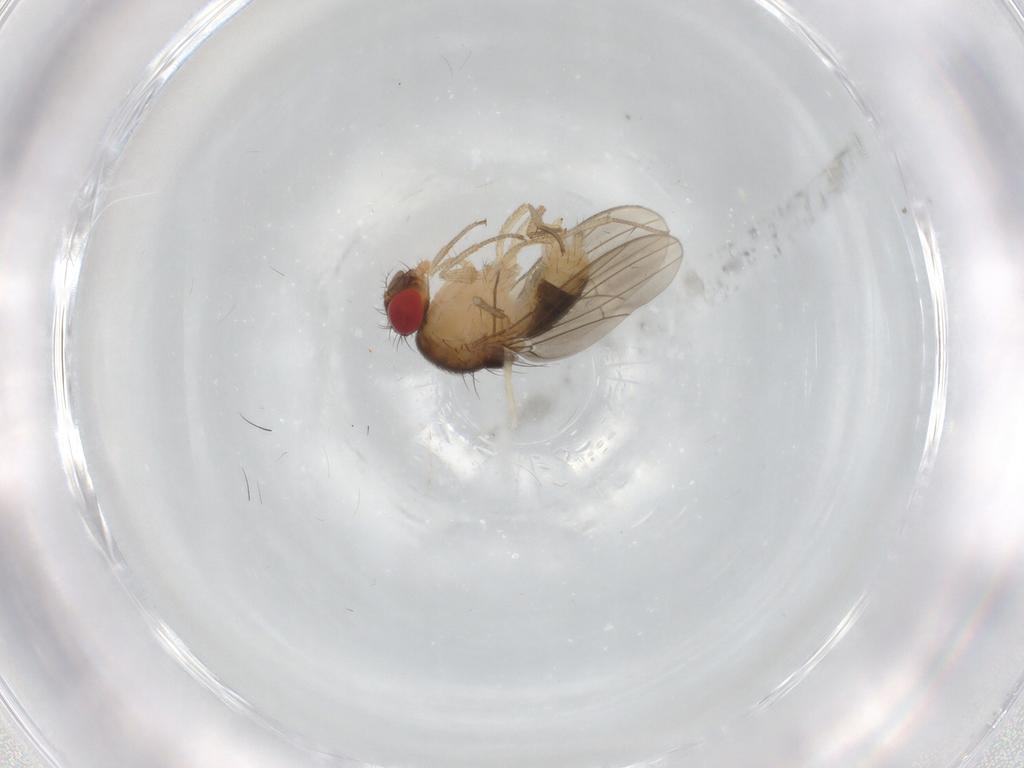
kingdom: Animalia
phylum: Arthropoda
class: Insecta
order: Diptera
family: Drosophilidae
